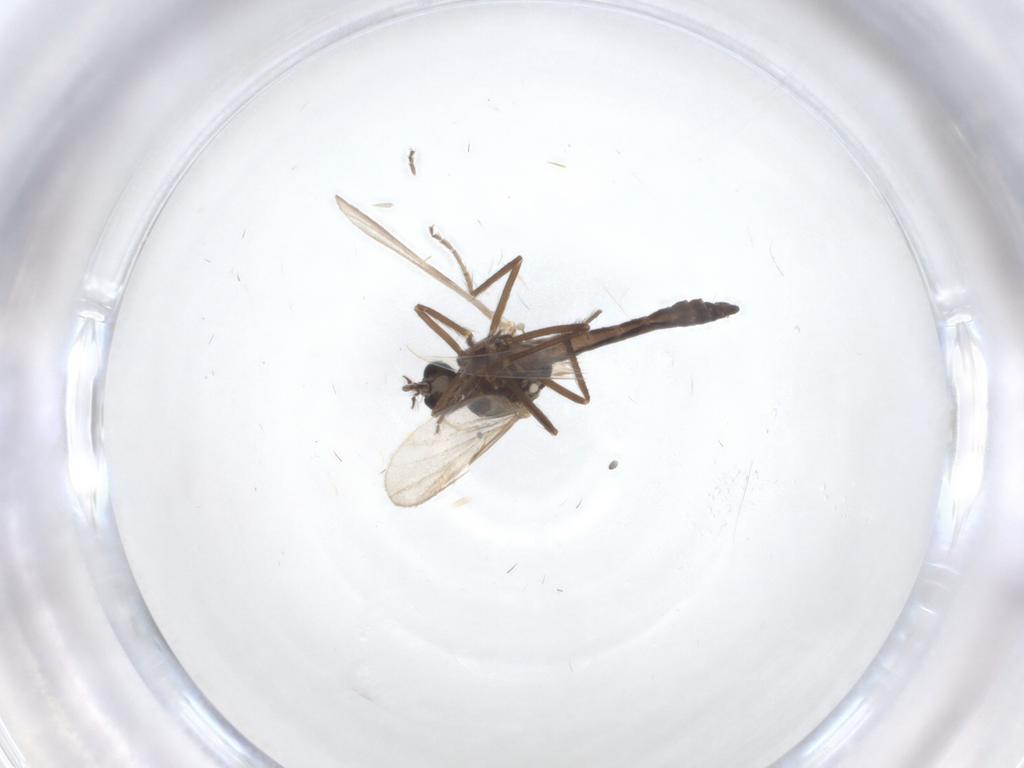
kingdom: Animalia
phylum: Arthropoda
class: Insecta
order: Diptera
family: Ceratopogonidae
